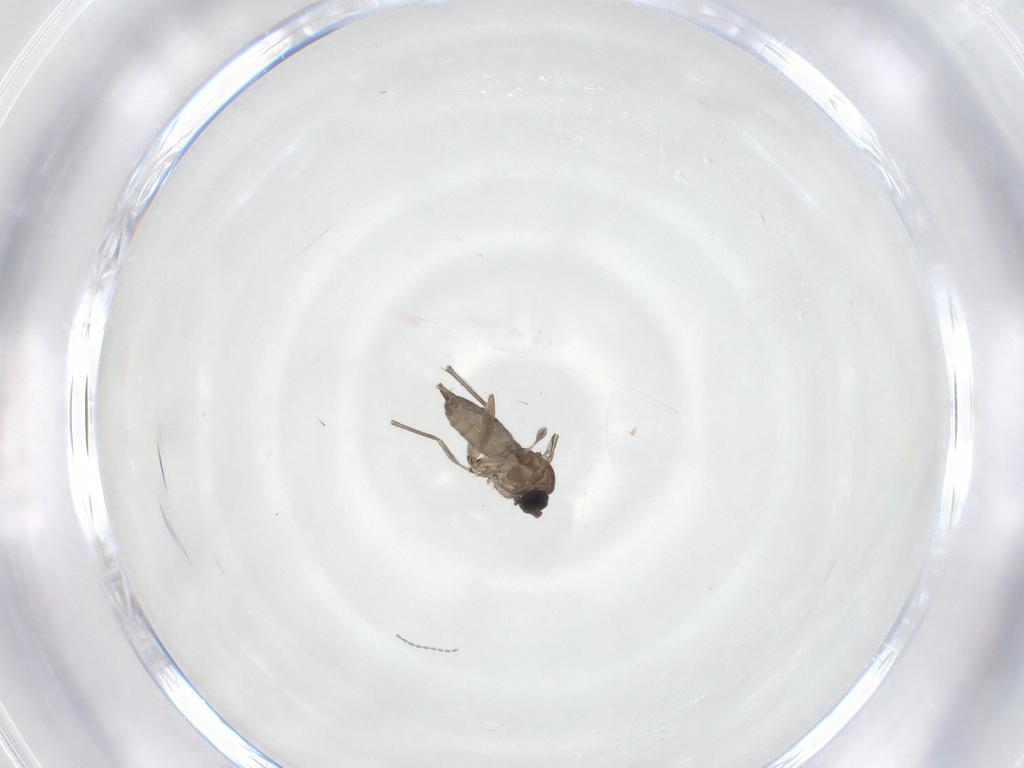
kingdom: Animalia
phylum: Arthropoda
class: Insecta
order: Diptera
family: Sciaridae
